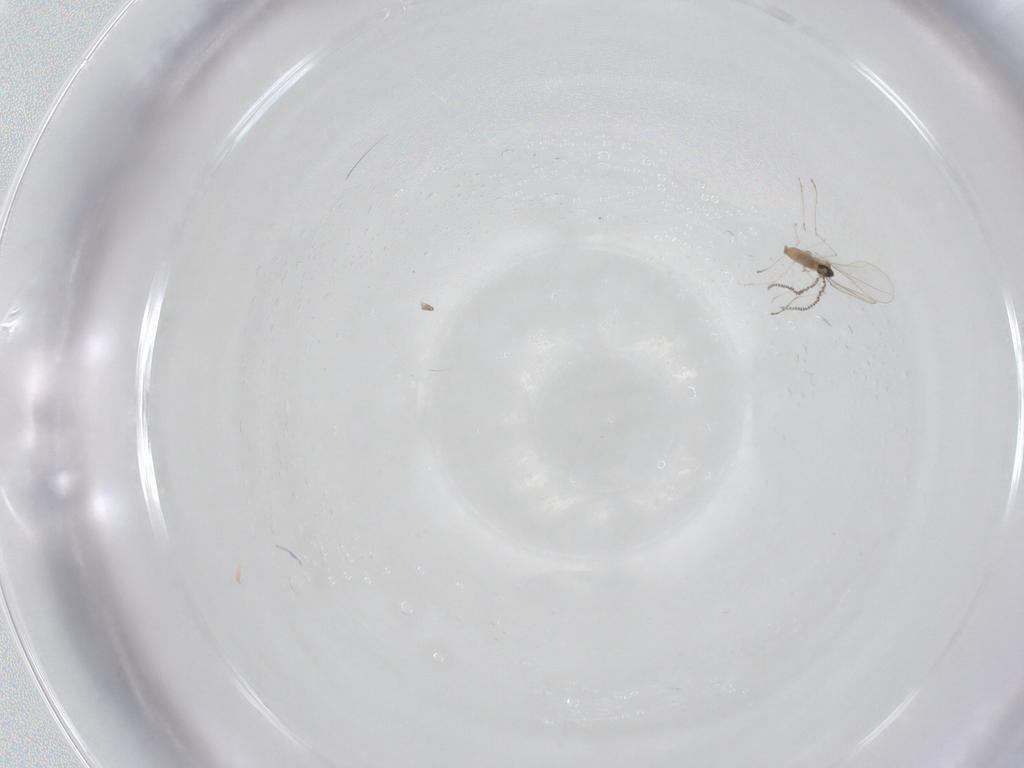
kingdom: Animalia
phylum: Arthropoda
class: Insecta
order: Diptera
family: Cecidomyiidae
